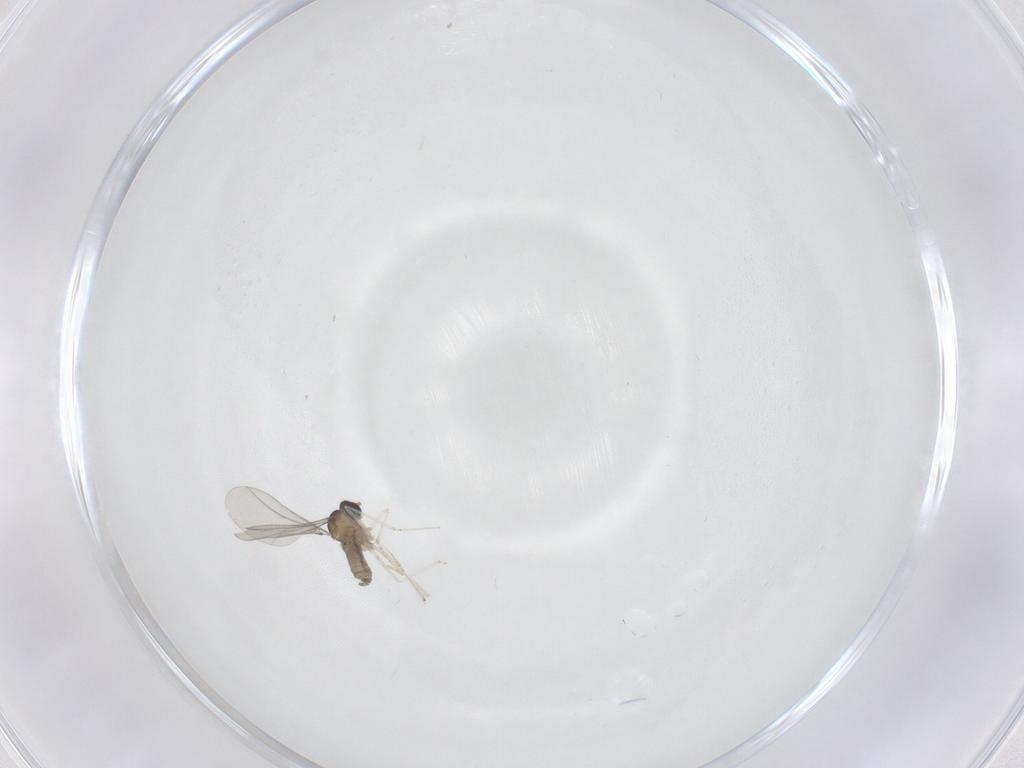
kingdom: Animalia
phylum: Arthropoda
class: Insecta
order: Diptera
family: Cecidomyiidae
